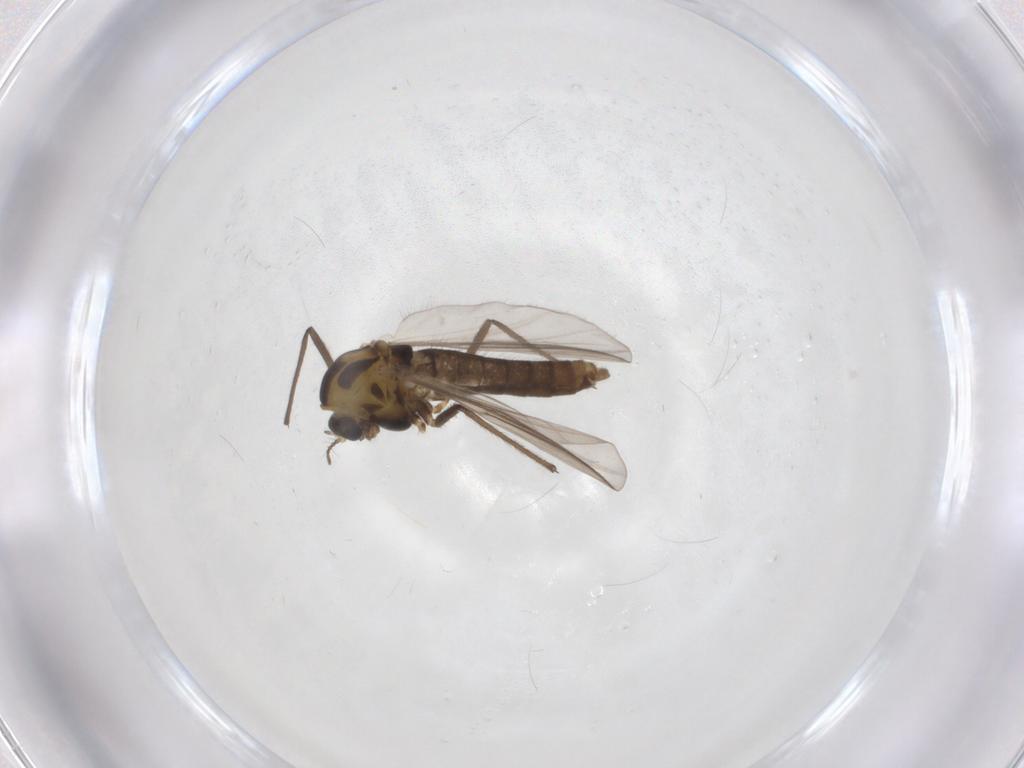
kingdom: Animalia
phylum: Arthropoda
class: Insecta
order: Diptera
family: Chironomidae
